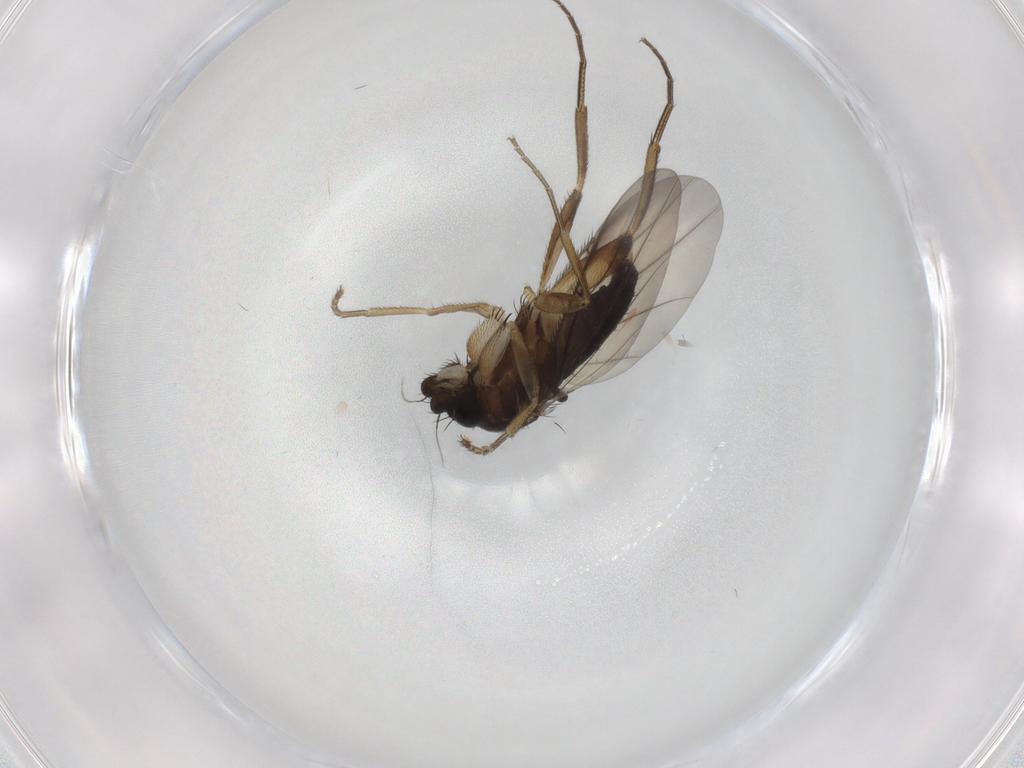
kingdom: Animalia
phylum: Arthropoda
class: Insecta
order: Diptera
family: Phoridae
